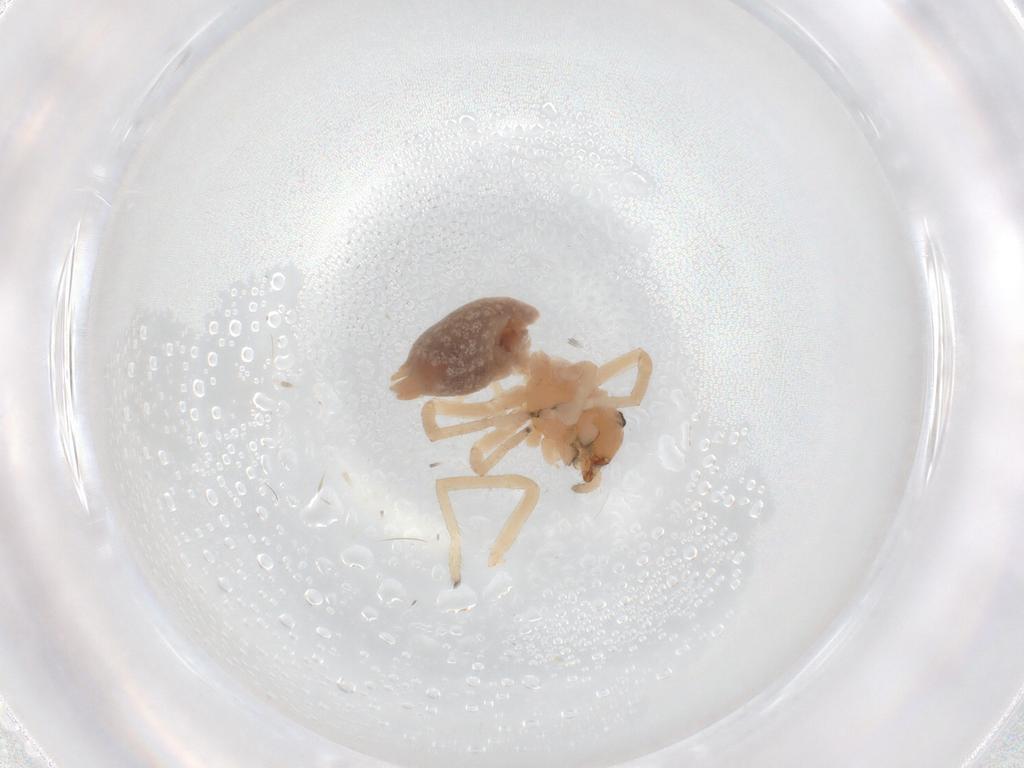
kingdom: Animalia
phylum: Arthropoda
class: Arachnida
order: Araneae
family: Cheiracanthiidae
